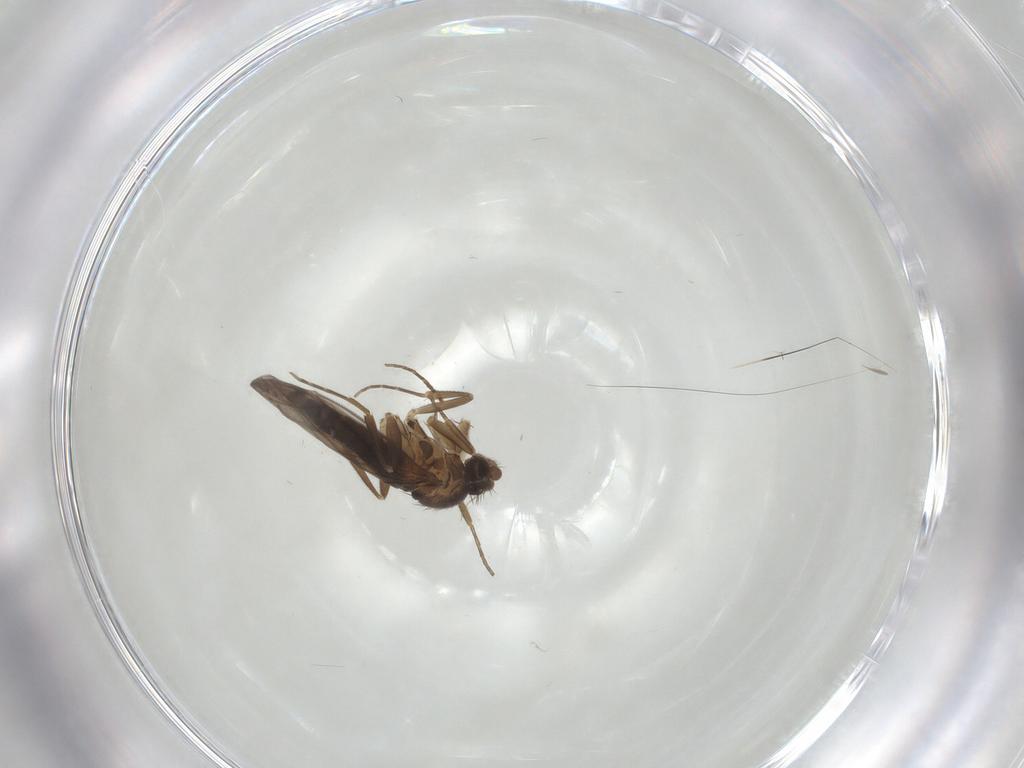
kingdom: Animalia
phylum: Arthropoda
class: Insecta
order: Diptera
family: Phoridae
